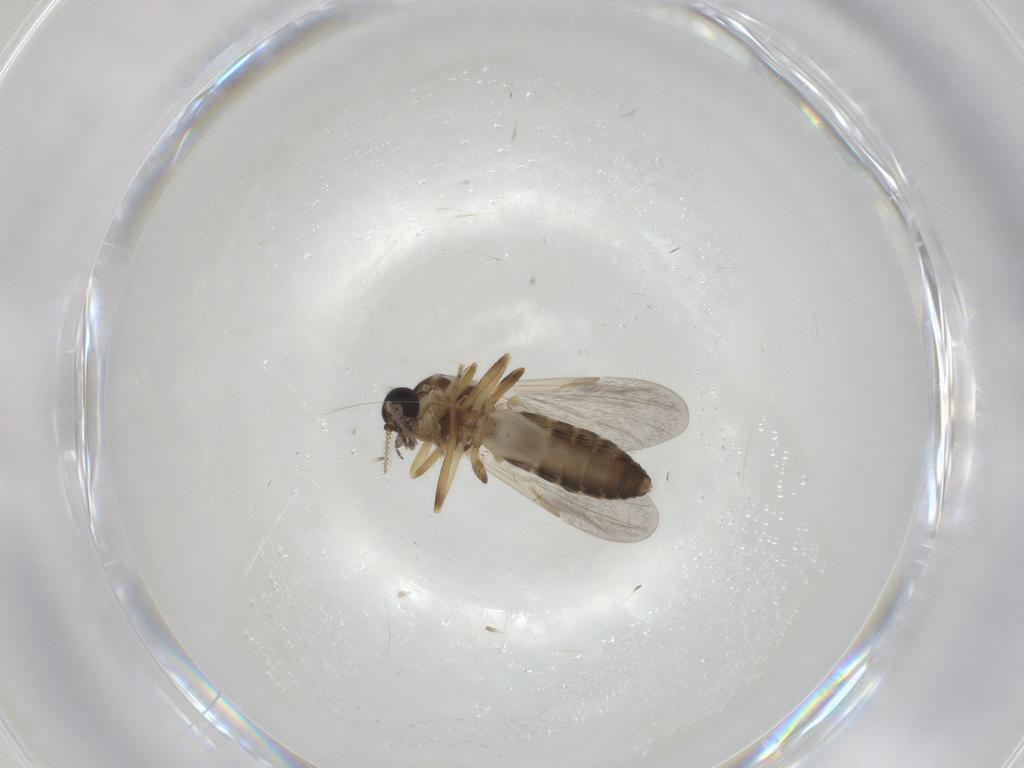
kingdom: Animalia
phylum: Arthropoda
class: Insecta
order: Diptera
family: Ceratopogonidae
